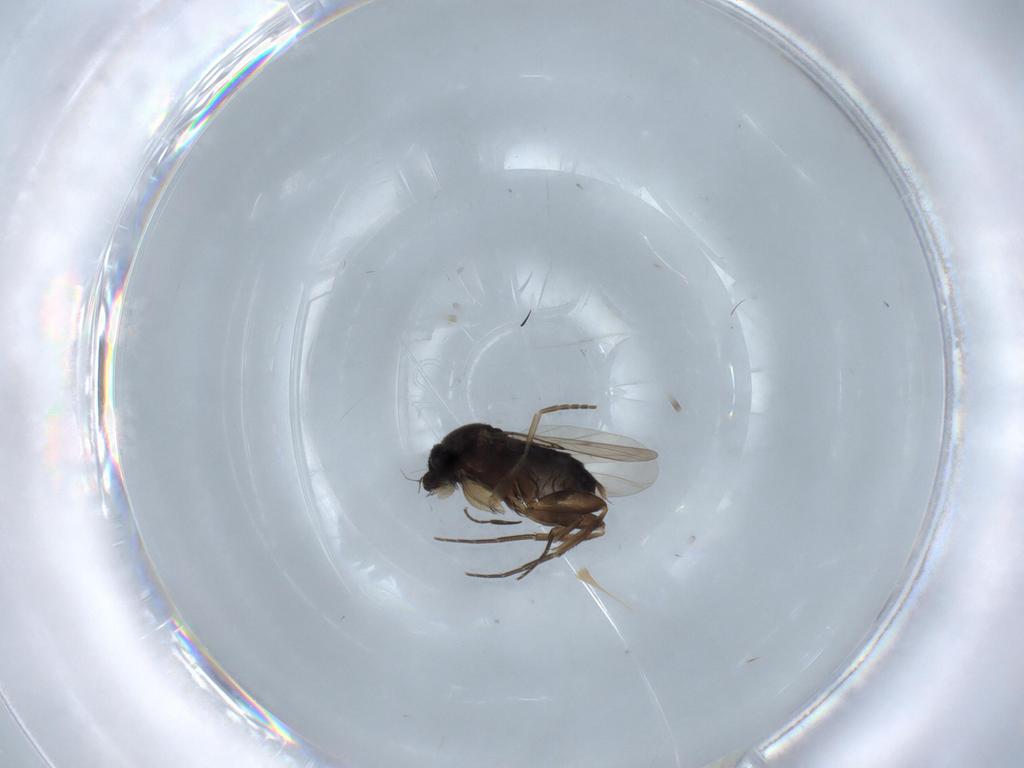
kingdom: Animalia
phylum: Arthropoda
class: Insecta
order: Diptera
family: Phoridae
